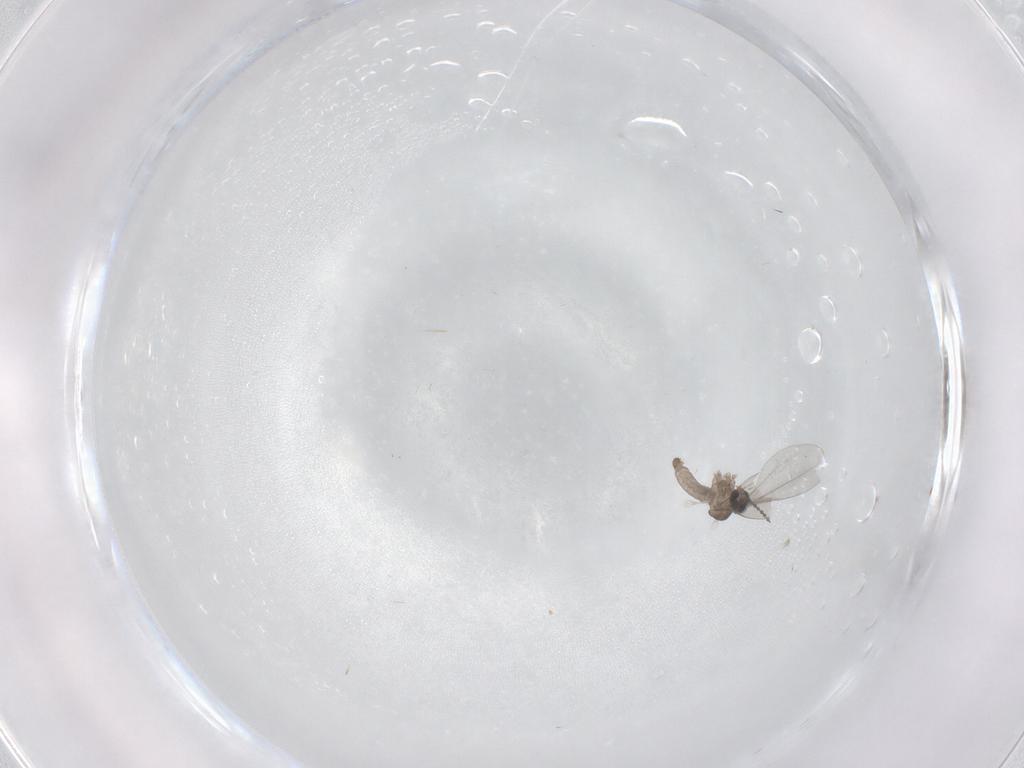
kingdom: Animalia
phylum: Arthropoda
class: Insecta
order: Diptera
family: Cecidomyiidae
